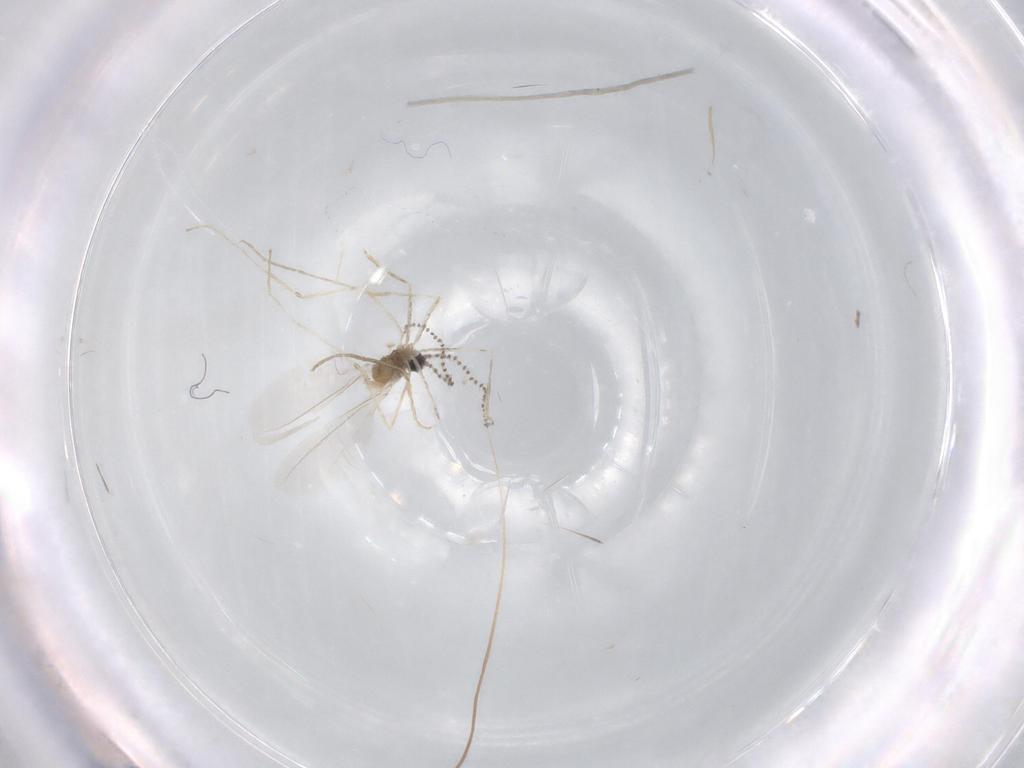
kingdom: Animalia
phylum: Arthropoda
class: Insecta
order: Diptera
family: Cecidomyiidae
